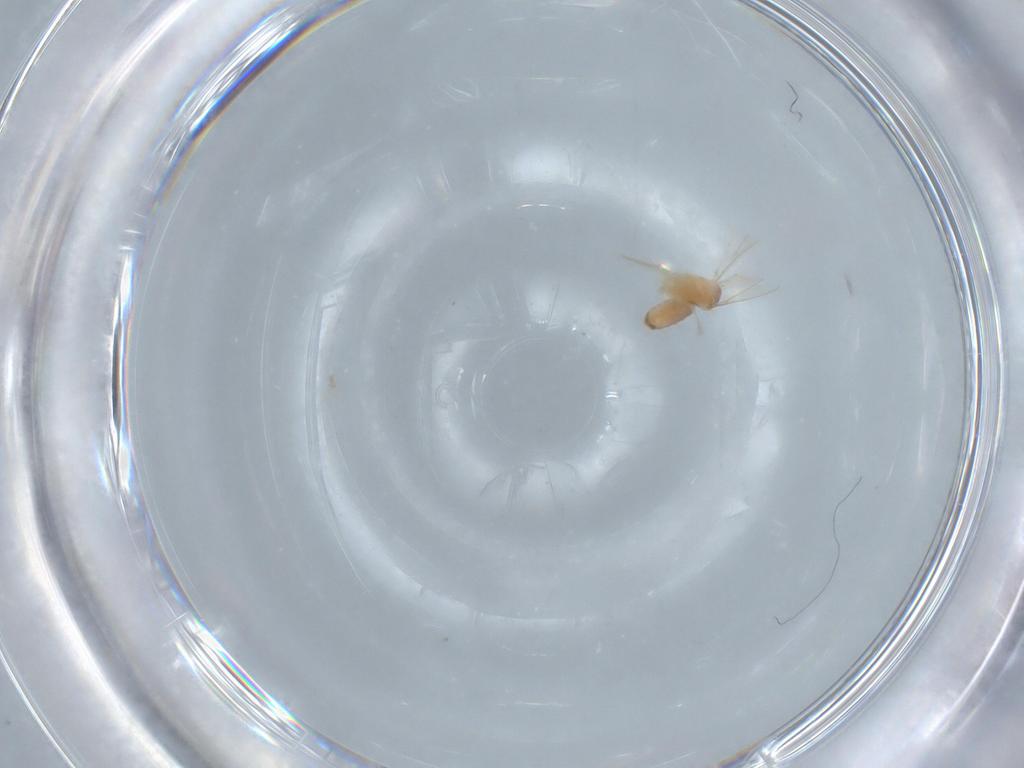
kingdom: Animalia
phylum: Arthropoda
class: Insecta
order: Diptera
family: Cecidomyiidae
